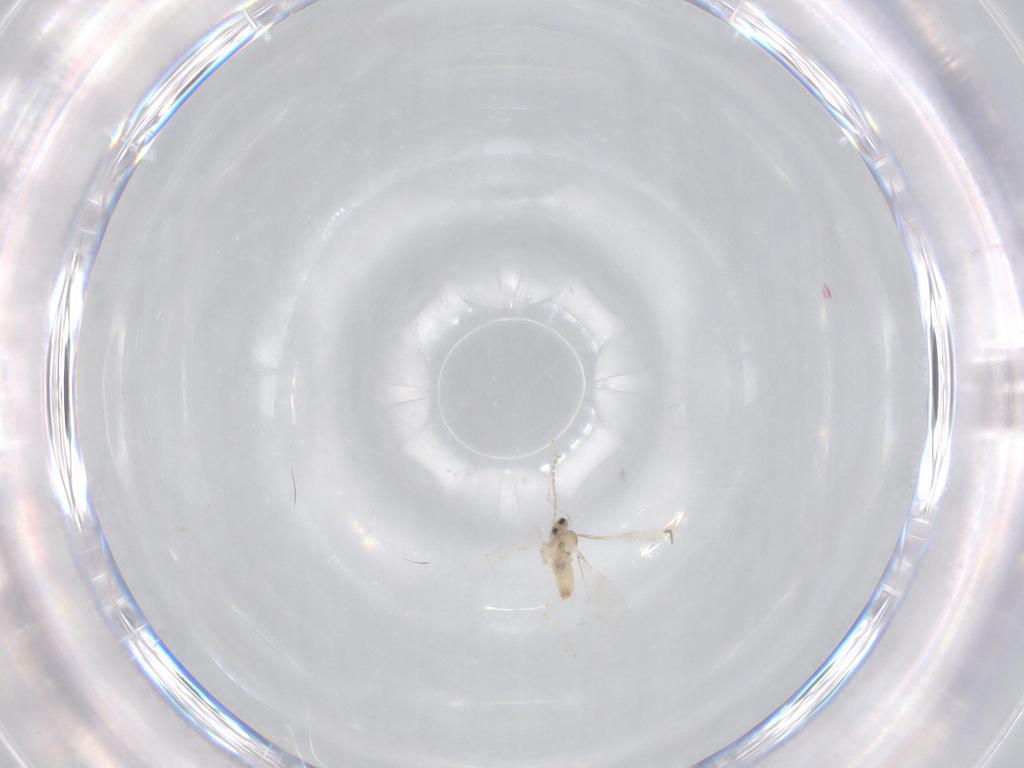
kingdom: Animalia
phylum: Arthropoda
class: Insecta
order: Diptera
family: Cecidomyiidae
